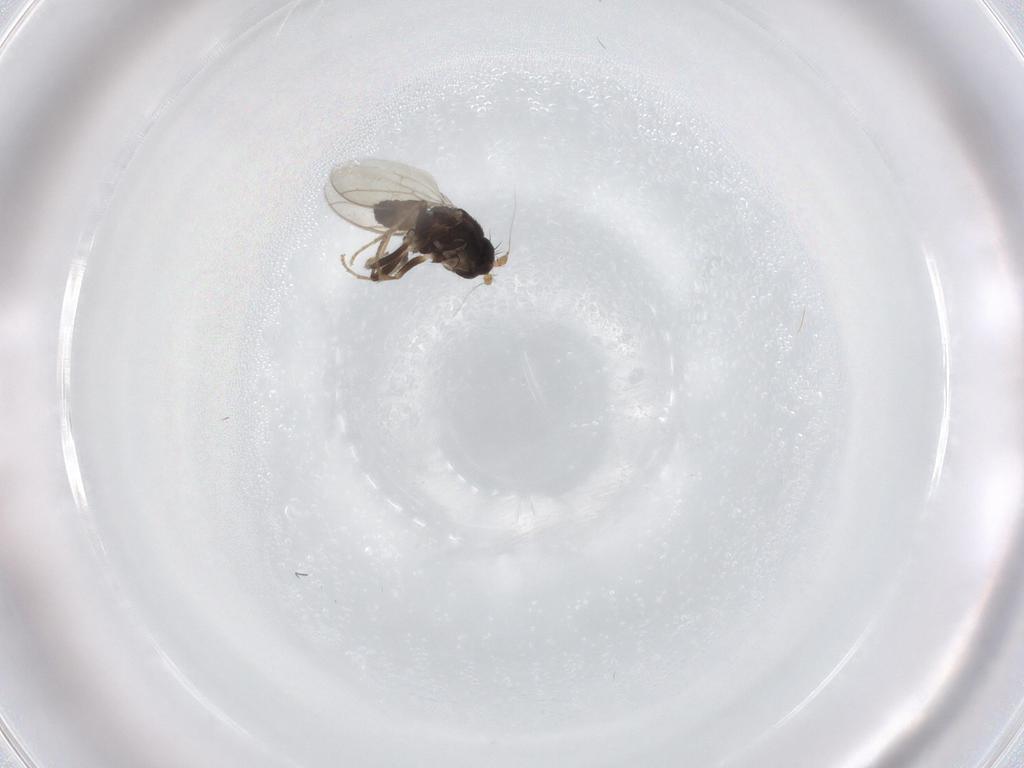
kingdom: Animalia
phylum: Arthropoda
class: Insecta
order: Diptera
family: Sphaeroceridae
